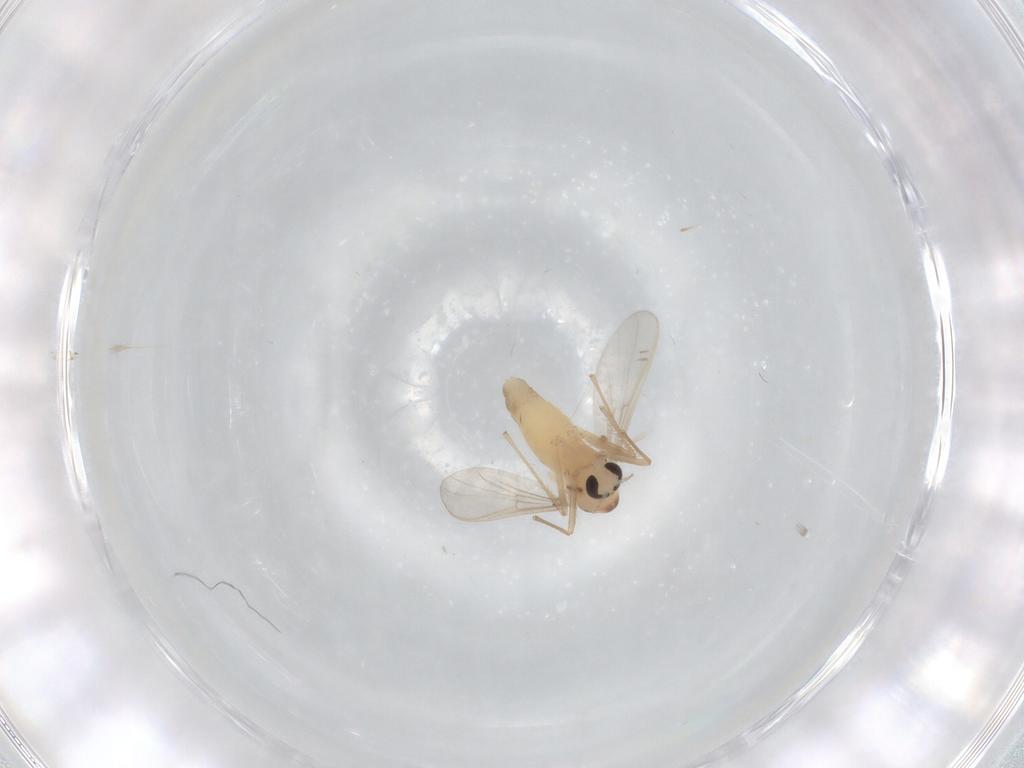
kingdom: Animalia
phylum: Arthropoda
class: Insecta
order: Diptera
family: Chironomidae
